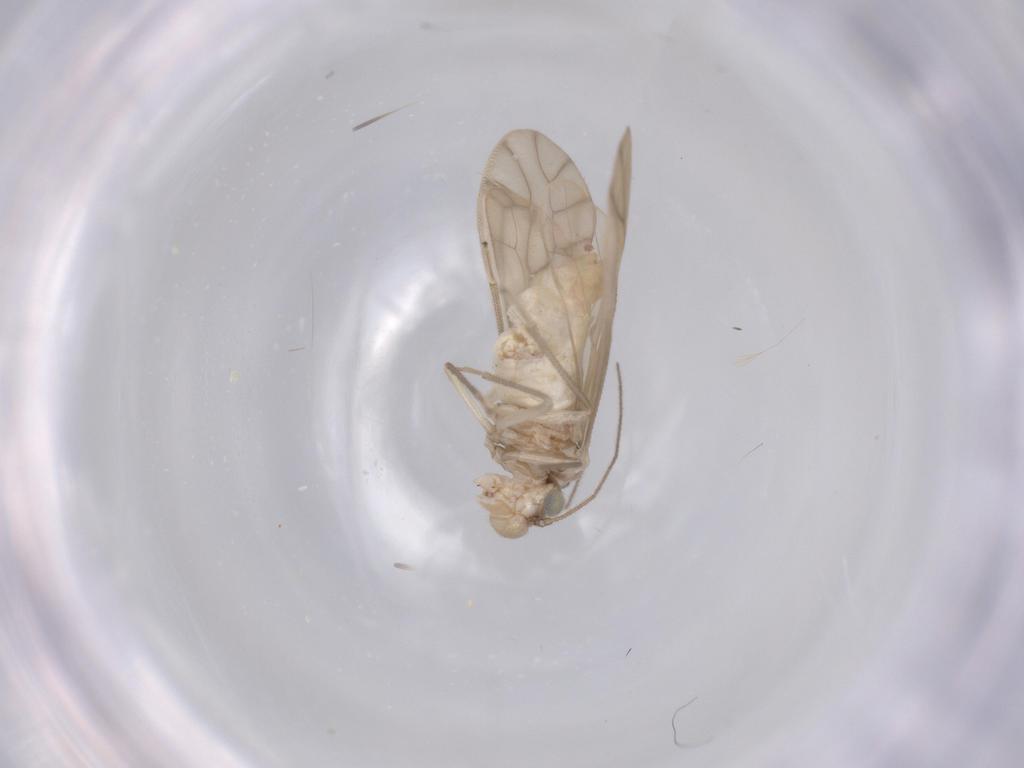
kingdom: Animalia
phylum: Arthropoda
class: Insecta
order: Psocodea
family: Caeciliusidae
